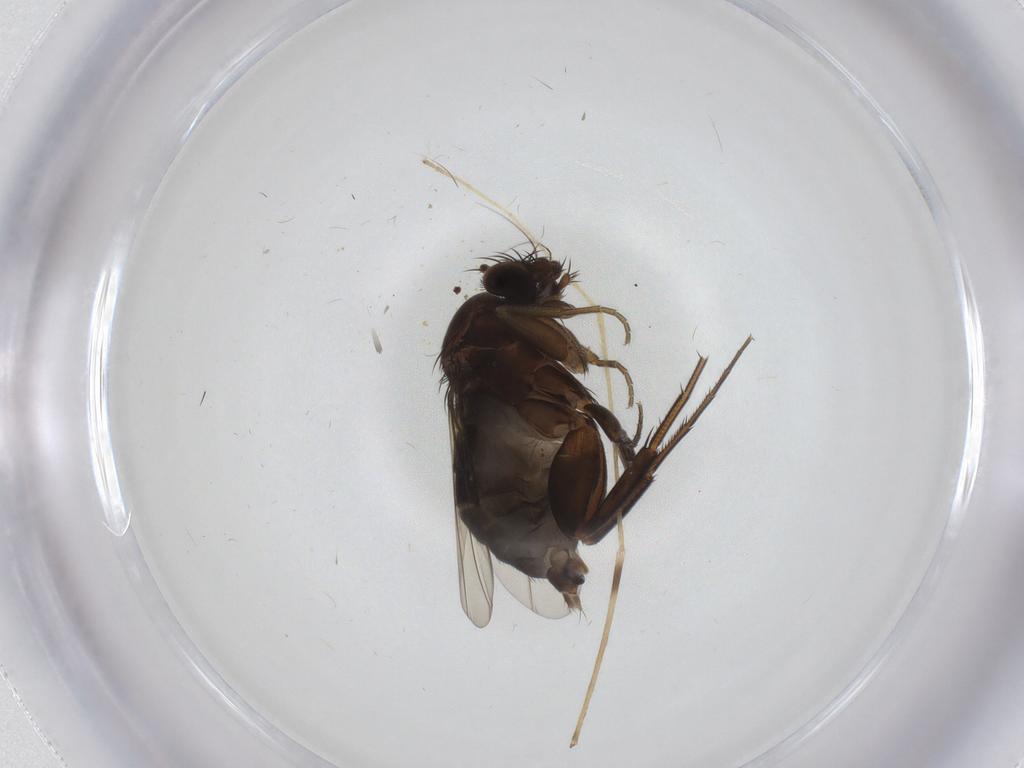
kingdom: Animalia
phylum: Arthropoda
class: Insecta
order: Diptera
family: Phoridae
